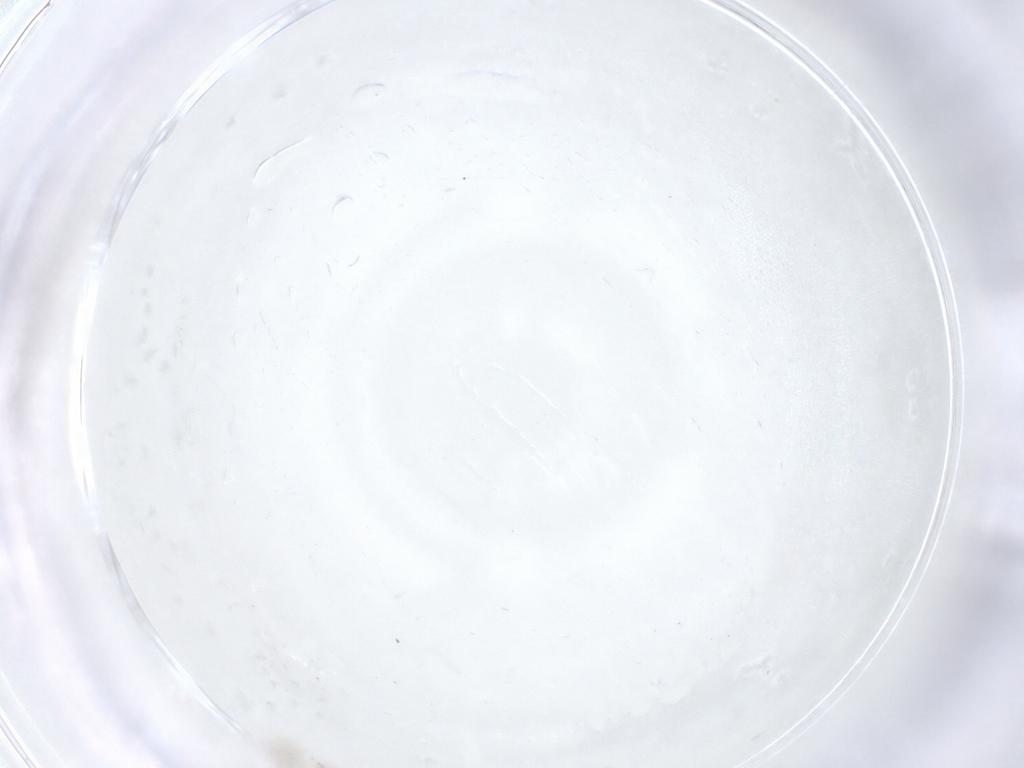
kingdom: Animalia
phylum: Arthropoda
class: Insecta
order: Diptera
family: Cecidomyiidae
